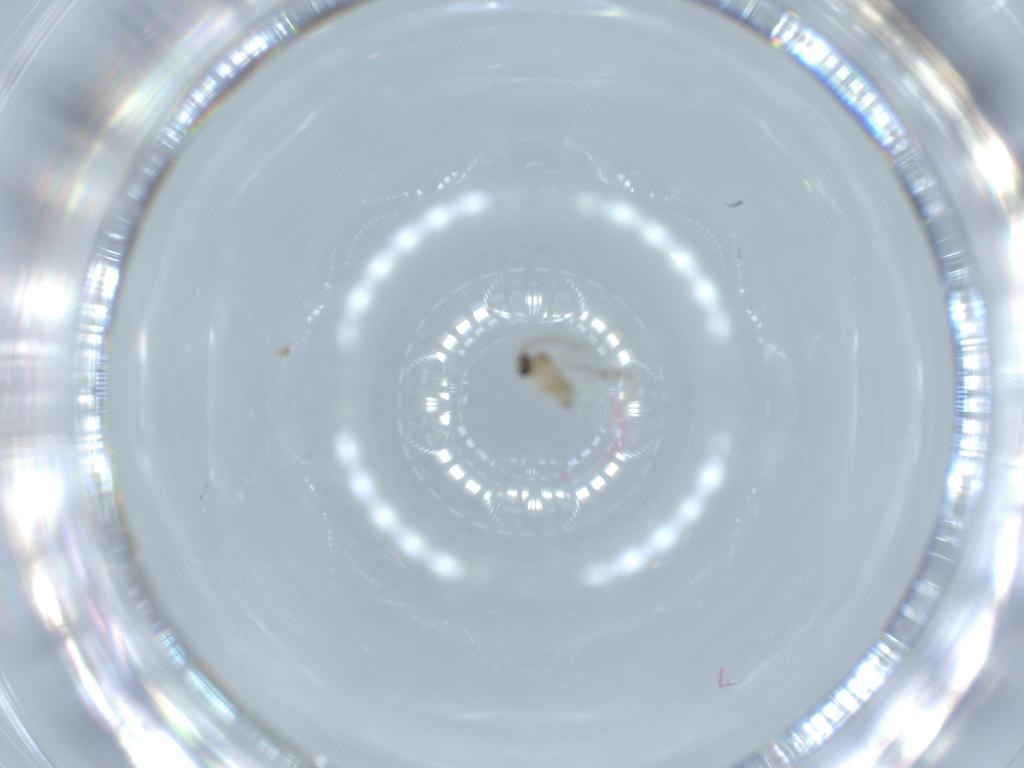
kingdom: Animalia
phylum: Arthropoda
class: Insecta
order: Diptera
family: Cecidomyiidae
